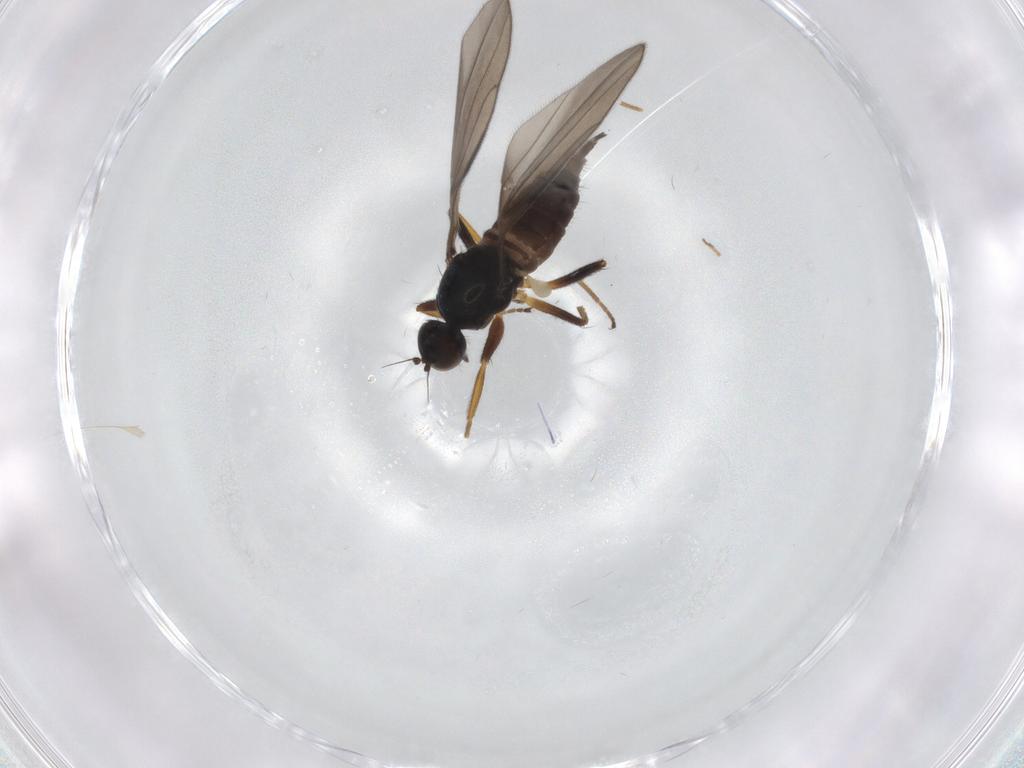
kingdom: Animalia
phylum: Arthropoda
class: Insecta
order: Diptera
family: Hybotidae
